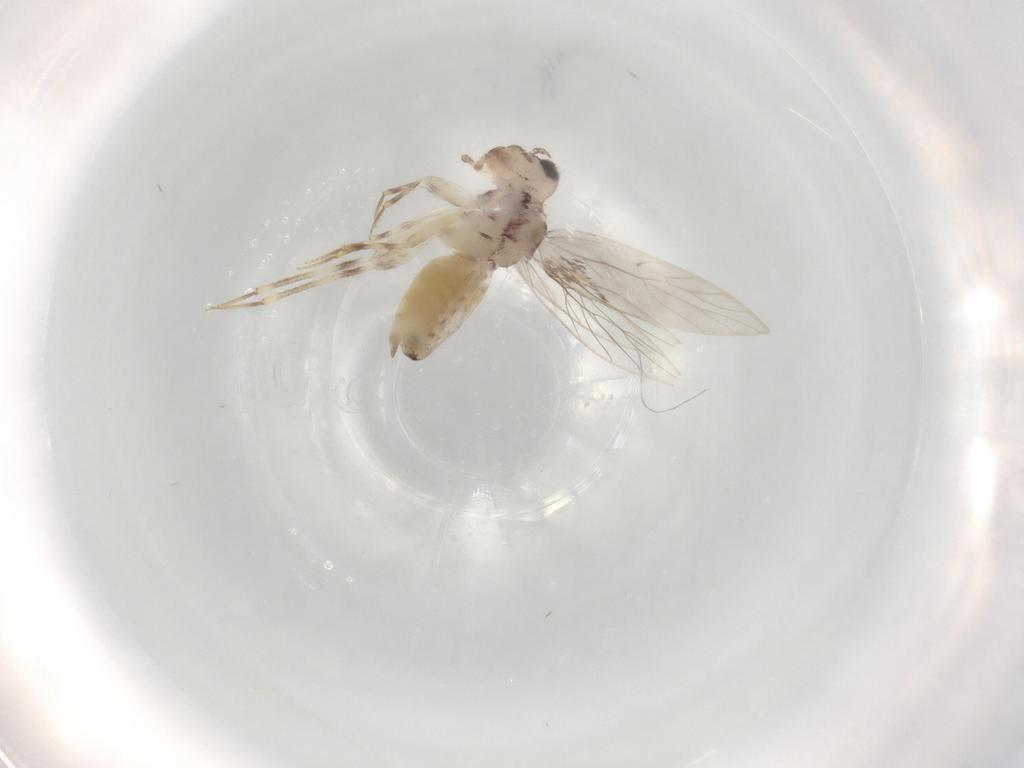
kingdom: Animalia
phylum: Arthropoda
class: Insecta
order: Psocodea
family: Lepidopsocidae
